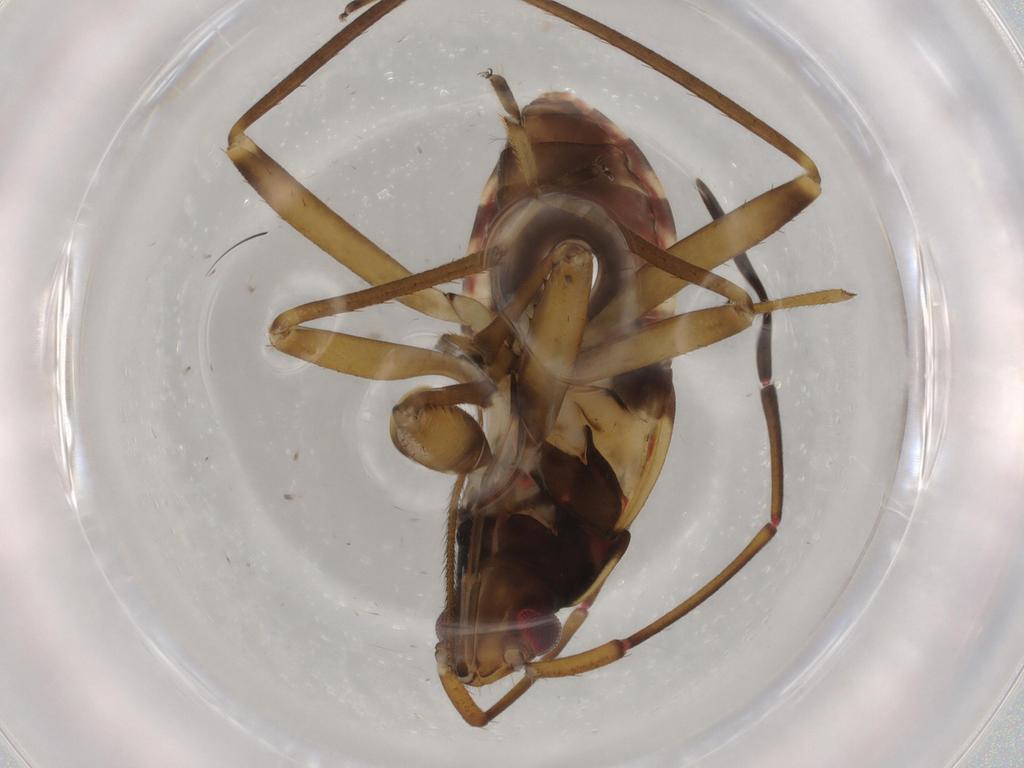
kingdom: Animalia
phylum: Arthropoda
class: Insecta
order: Hemiptera
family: Rhyparochromidae
